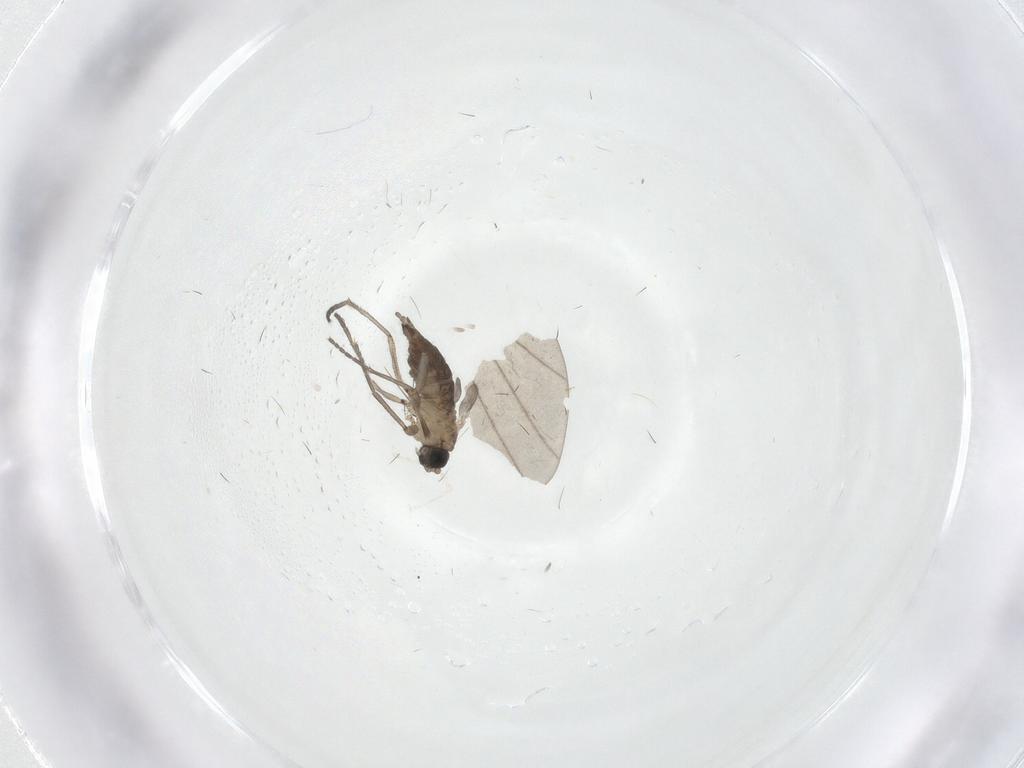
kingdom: Animalia
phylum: Arthropoda
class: Insecta
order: Diptera
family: Sciaridae
